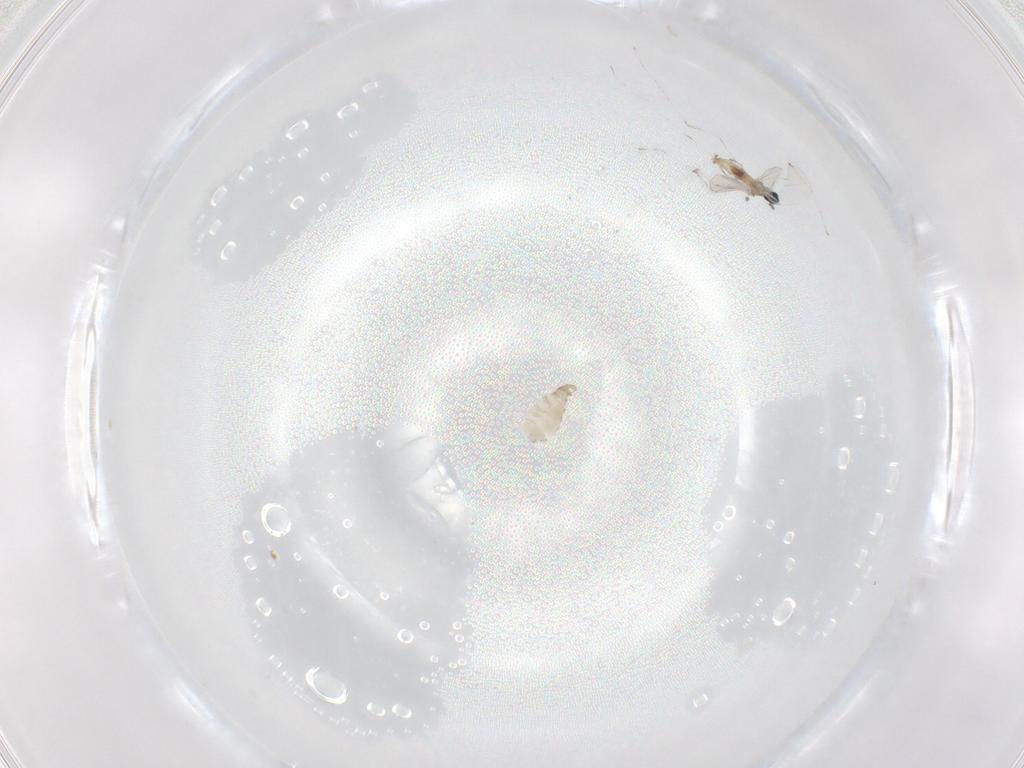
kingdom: Animalia
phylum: Arthropoda
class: Insecta
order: Diptera
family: Cecidomyiidae
